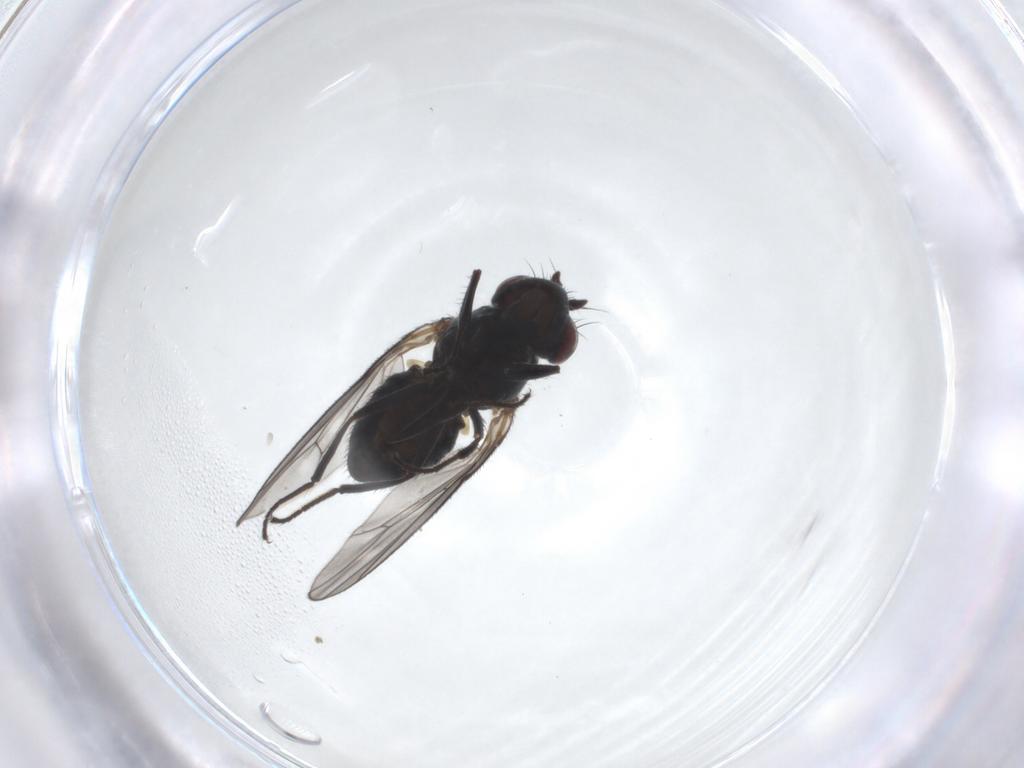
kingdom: Animalia
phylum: Arthropoda
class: Insecta
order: Diptera
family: Ephydridae
